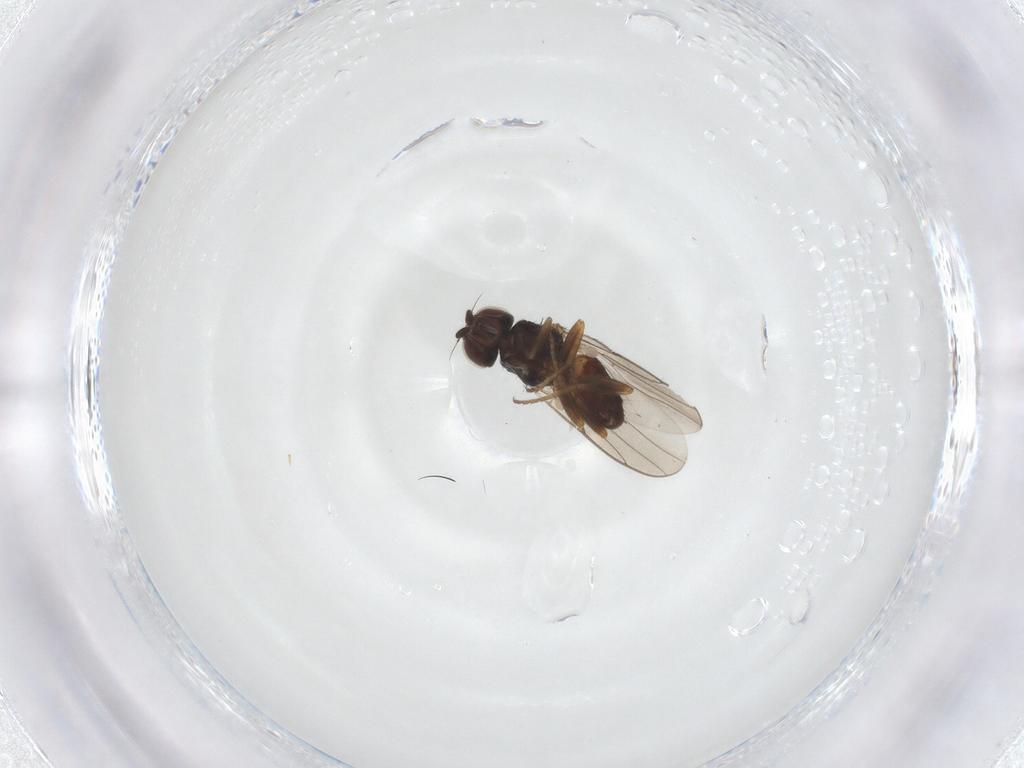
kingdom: Animalia
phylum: Arthropoda
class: Insecta
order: Diptera
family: Chloropidae
